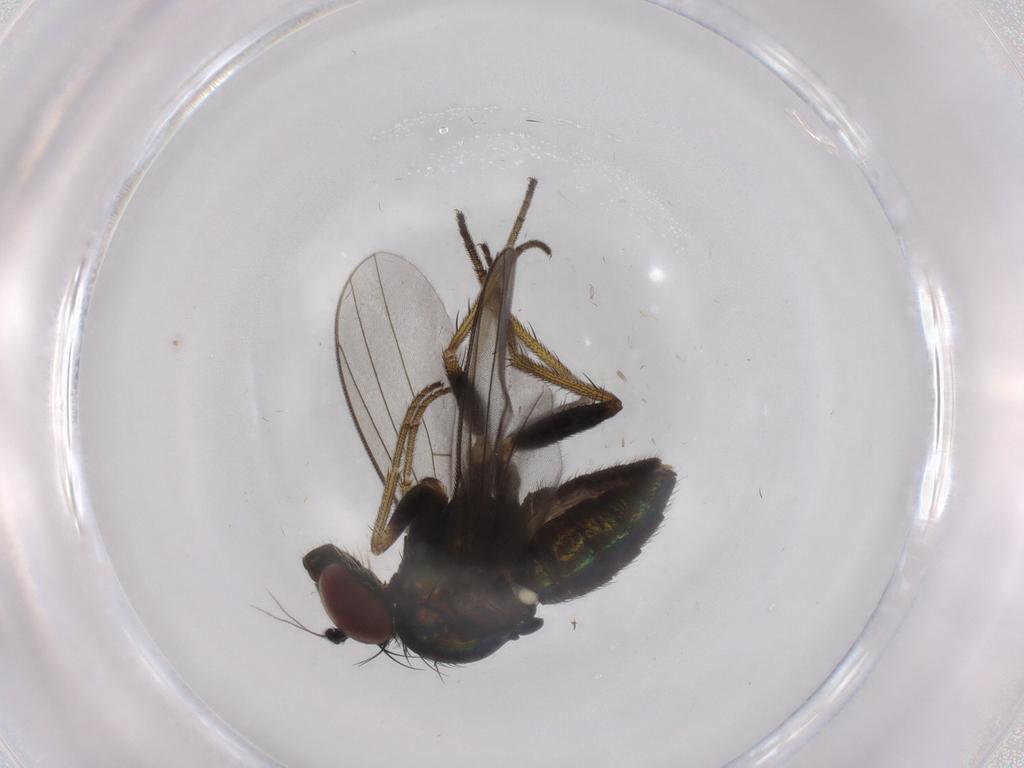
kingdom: Animalia
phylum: Arthropoda
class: Insecta
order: Diptera
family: Dolichopodidae
